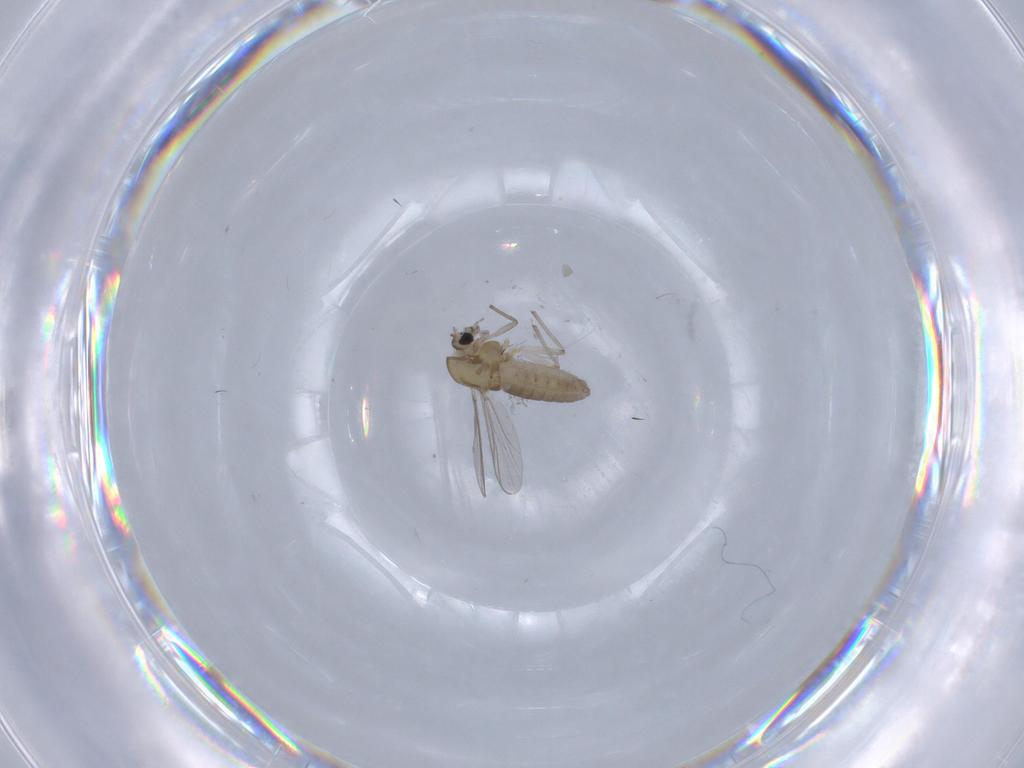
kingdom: Animalia
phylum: Arthropoda
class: Insecta
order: Diptera
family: Chironomidae
